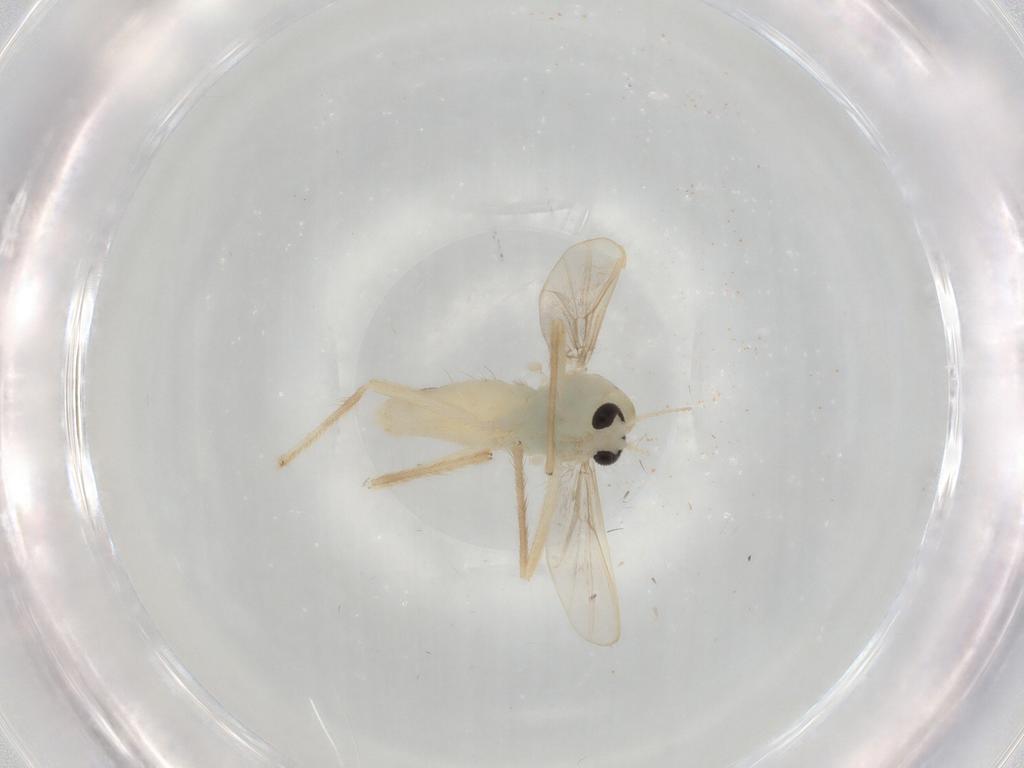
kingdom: Animalia
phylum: Arthropoda
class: Insecta
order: Diptera
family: Chironomidae
